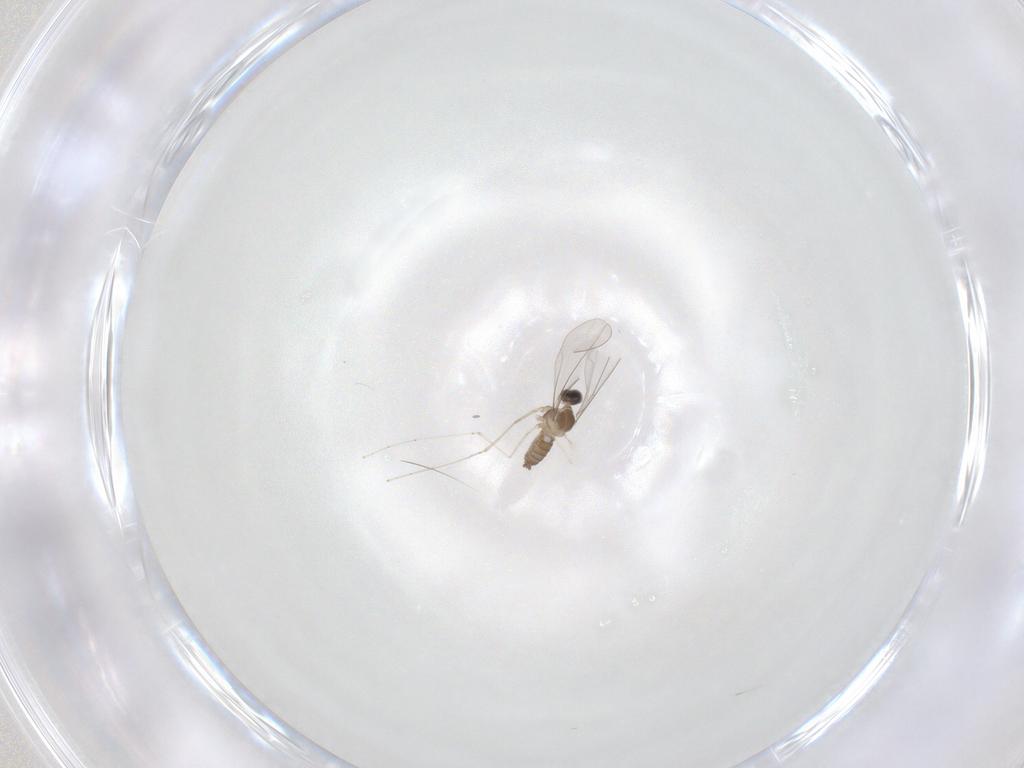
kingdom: Animalia
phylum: Arthropoda
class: Insecta
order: Diptera
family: Cecidomyiidae
